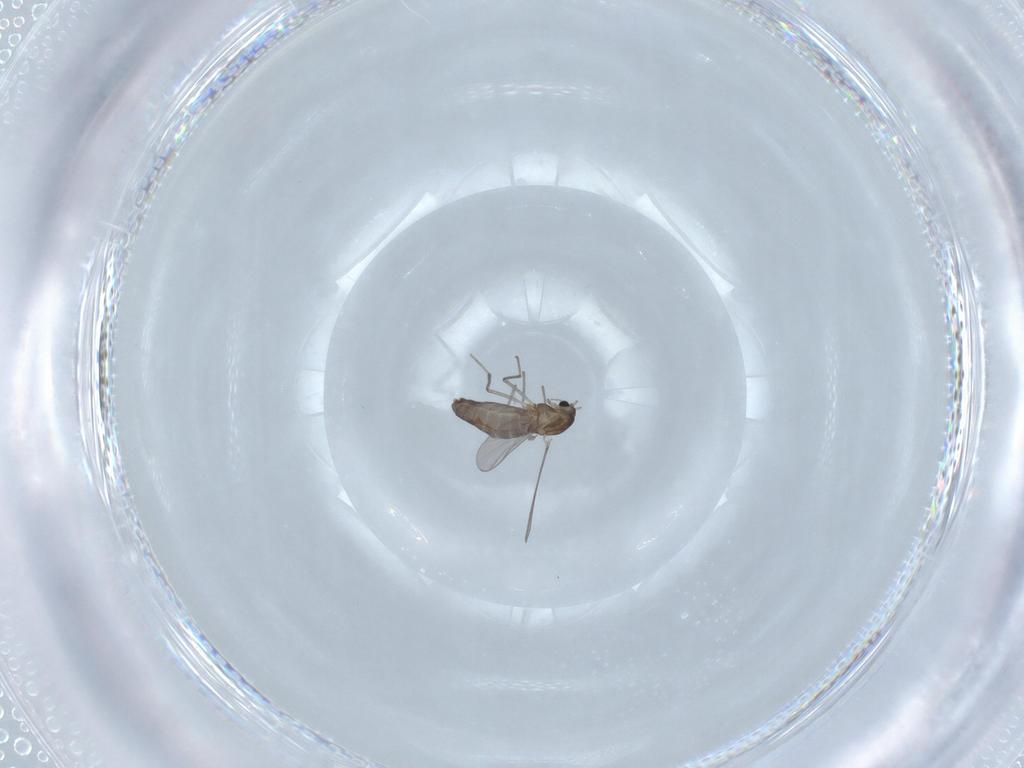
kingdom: Animalia
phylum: Arthropoda
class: Insecta
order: Diptera
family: Chironomidae
